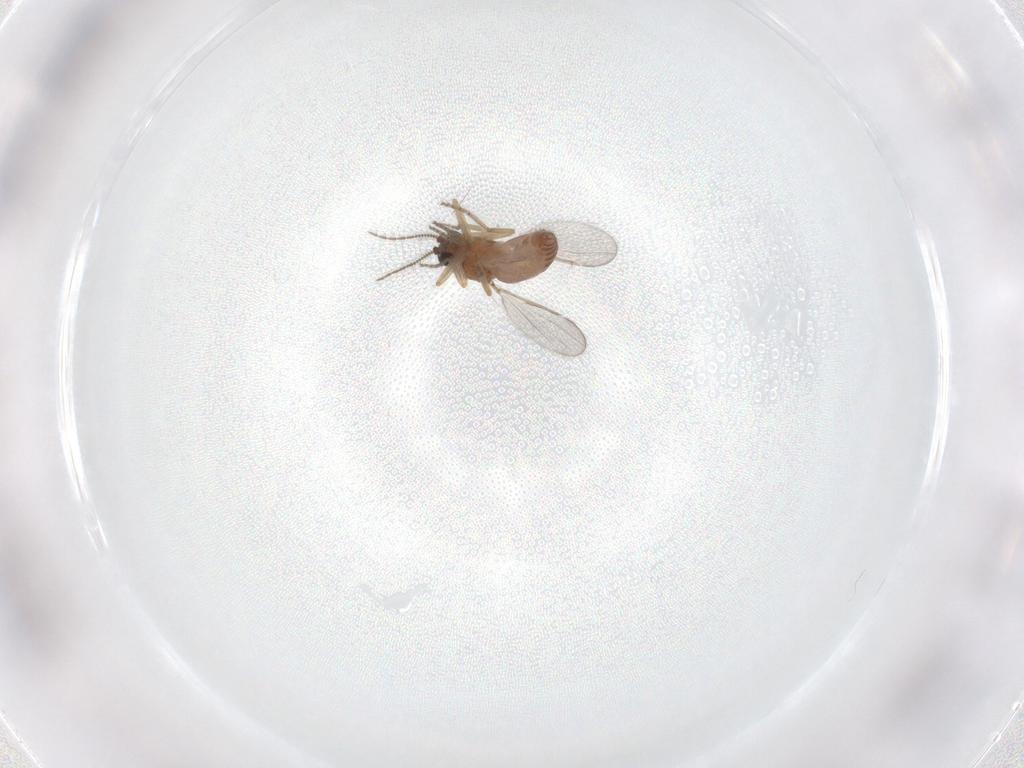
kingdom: Animalia
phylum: Arthropoda
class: Insecta
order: Diptera
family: Ceratopogonidae
